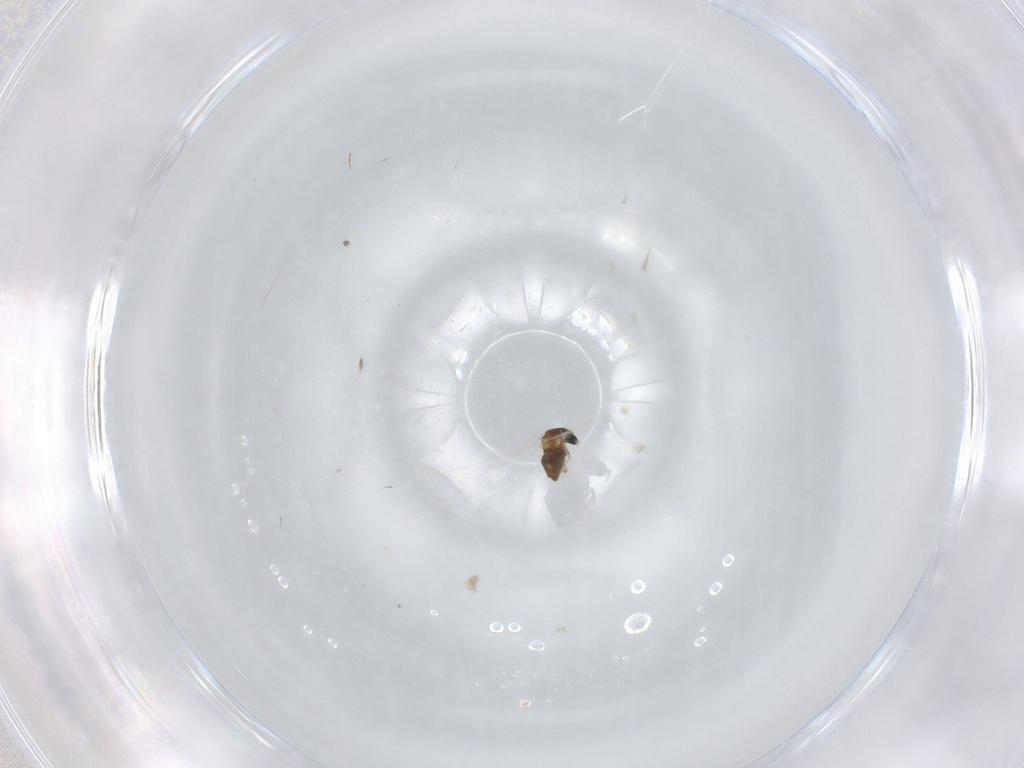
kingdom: Animalia
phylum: Arthropoda
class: Insecta
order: Diptera
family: Cecidomyiidae
